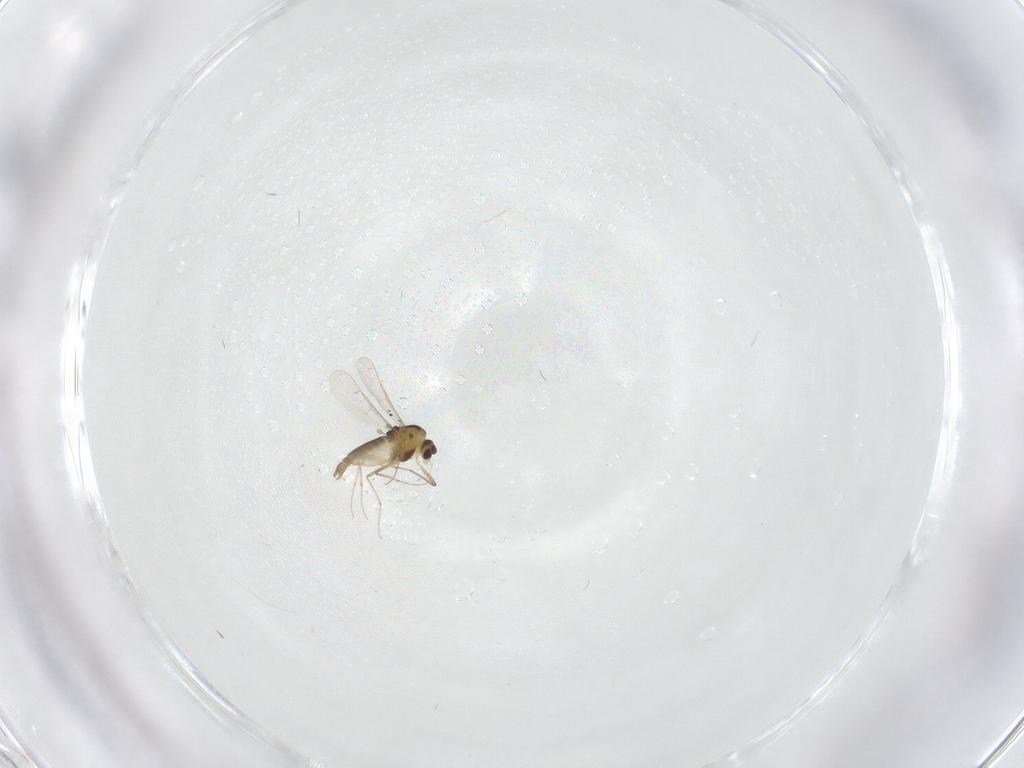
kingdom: Animalia
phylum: Arthropoda
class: Insecta
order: Diptera
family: Chironomidae
